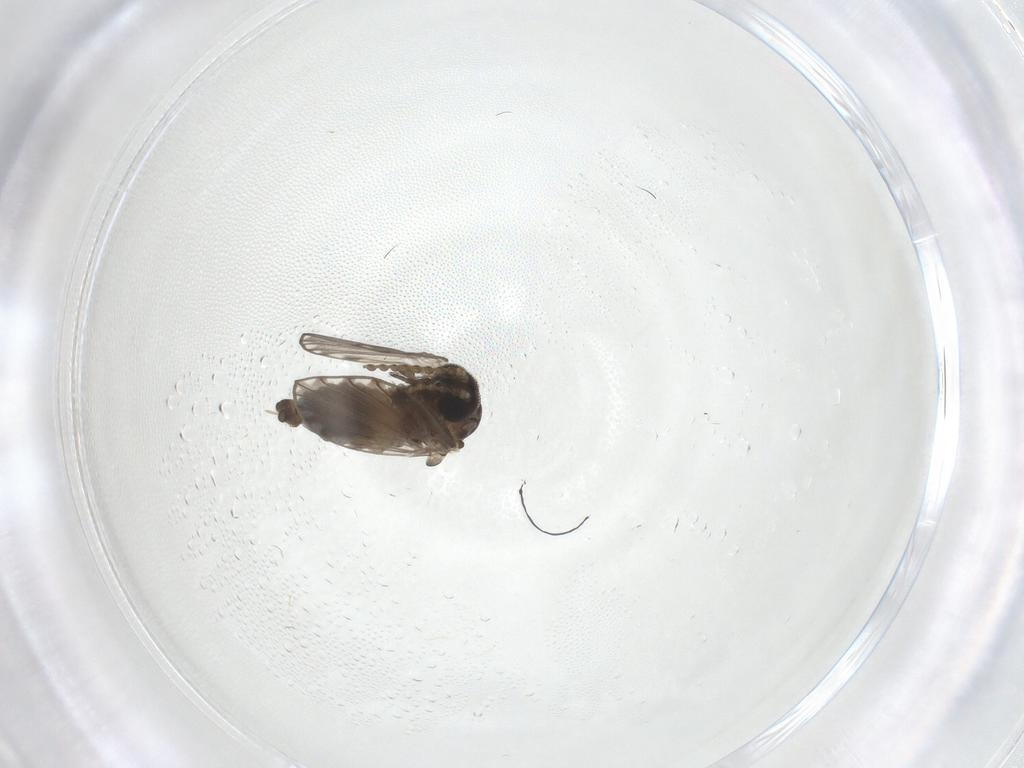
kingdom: Animalia
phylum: Arthropoda
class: Insecta
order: Diptera
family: Psychodidae
